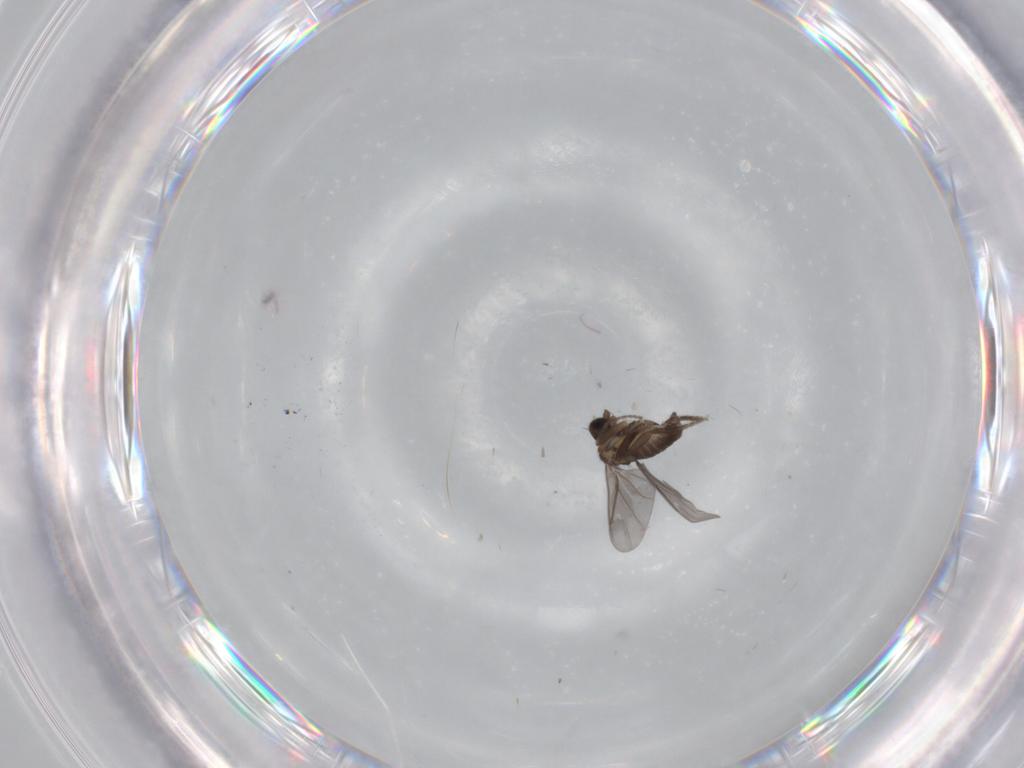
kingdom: Animalia
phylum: Arthropoda
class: Insecta
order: Diptera
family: Phoridae
